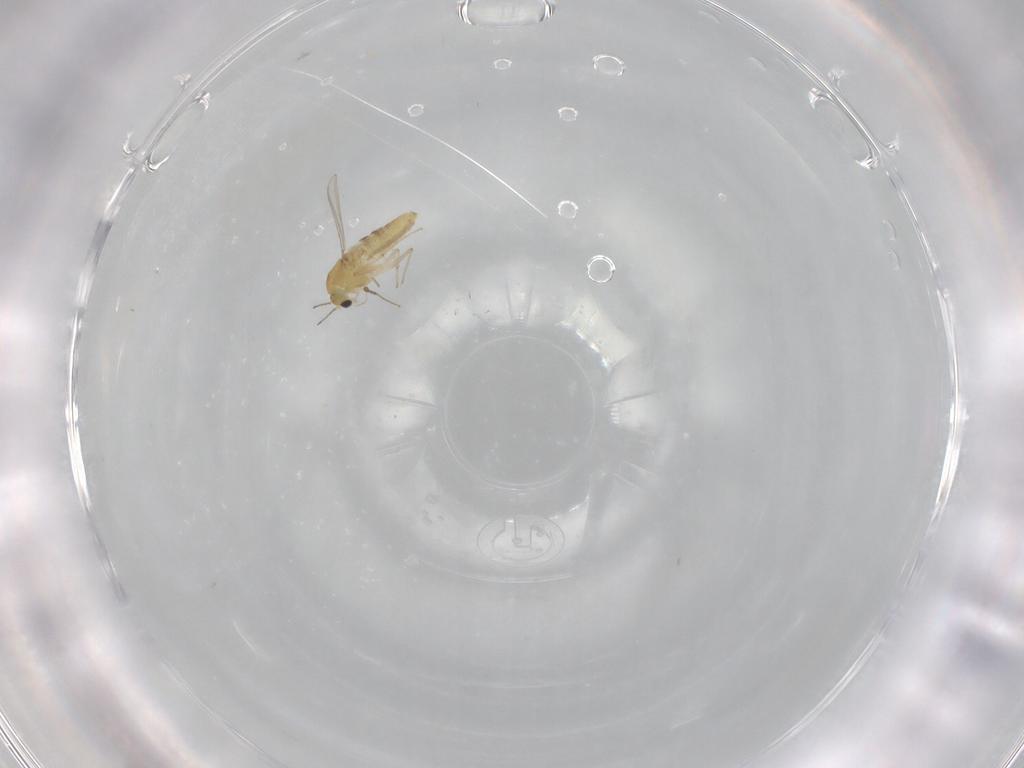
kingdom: Animalia
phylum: Arthropoda
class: Insecta
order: Diptera
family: Chironomidae
